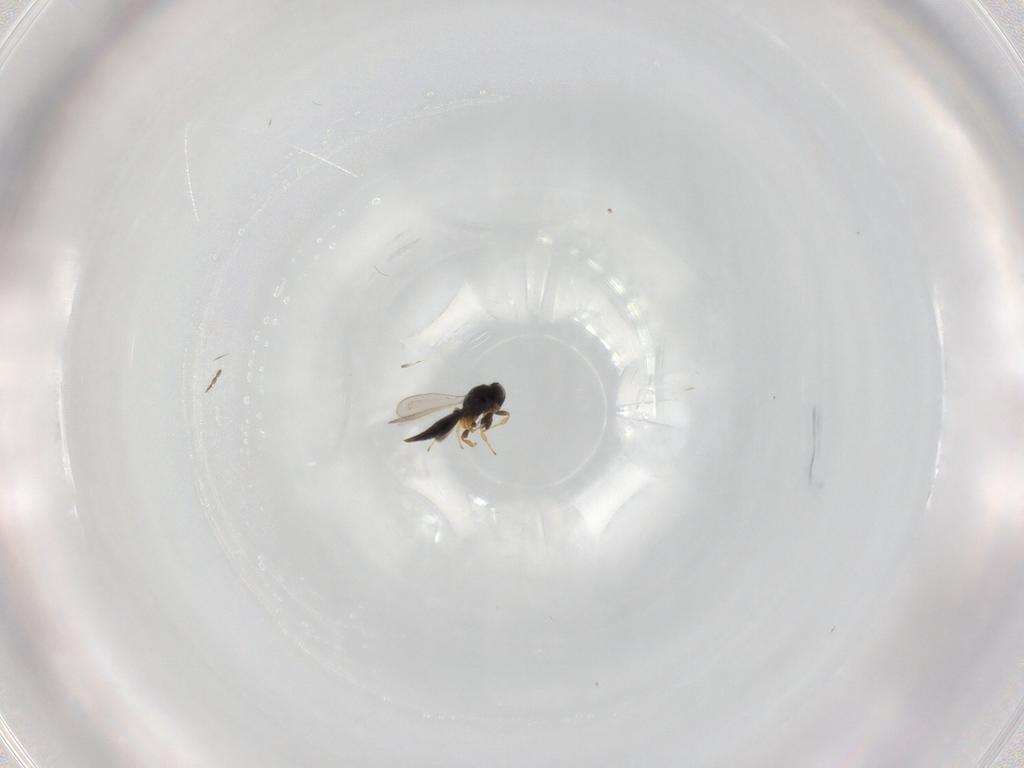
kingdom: Animalia
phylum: Arthropoda
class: Insecta
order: Hymenoptera
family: Platygastridae
